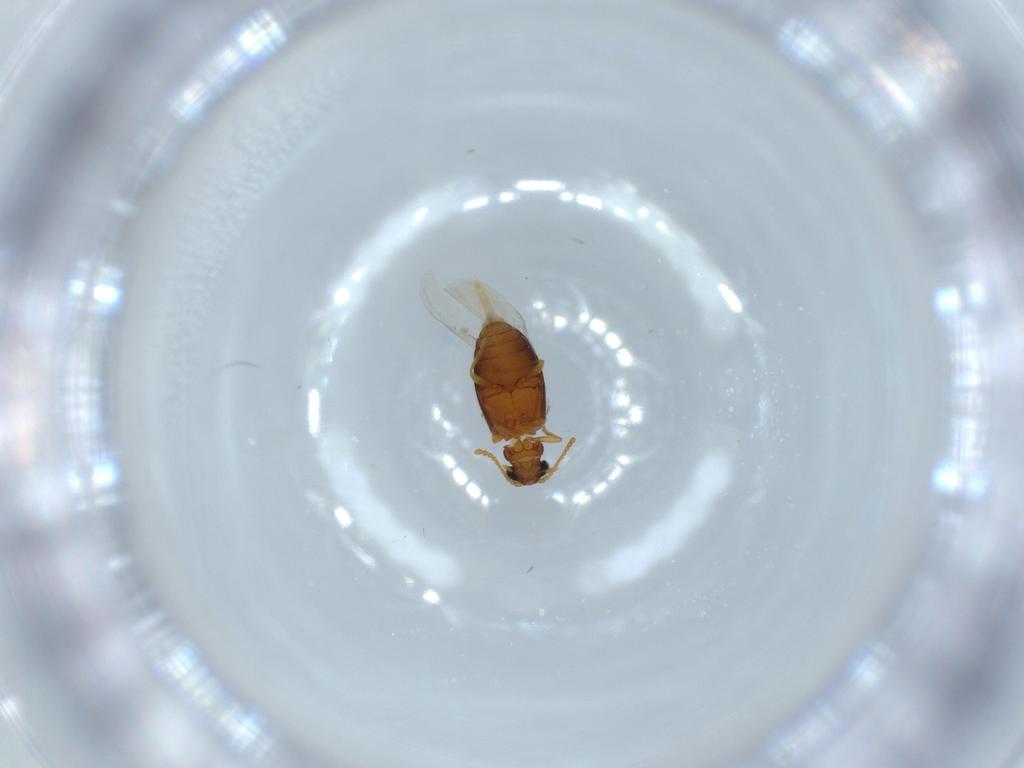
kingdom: Animalia
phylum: Arthropoda
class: Insecta
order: Coleoptera
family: Aderidae
